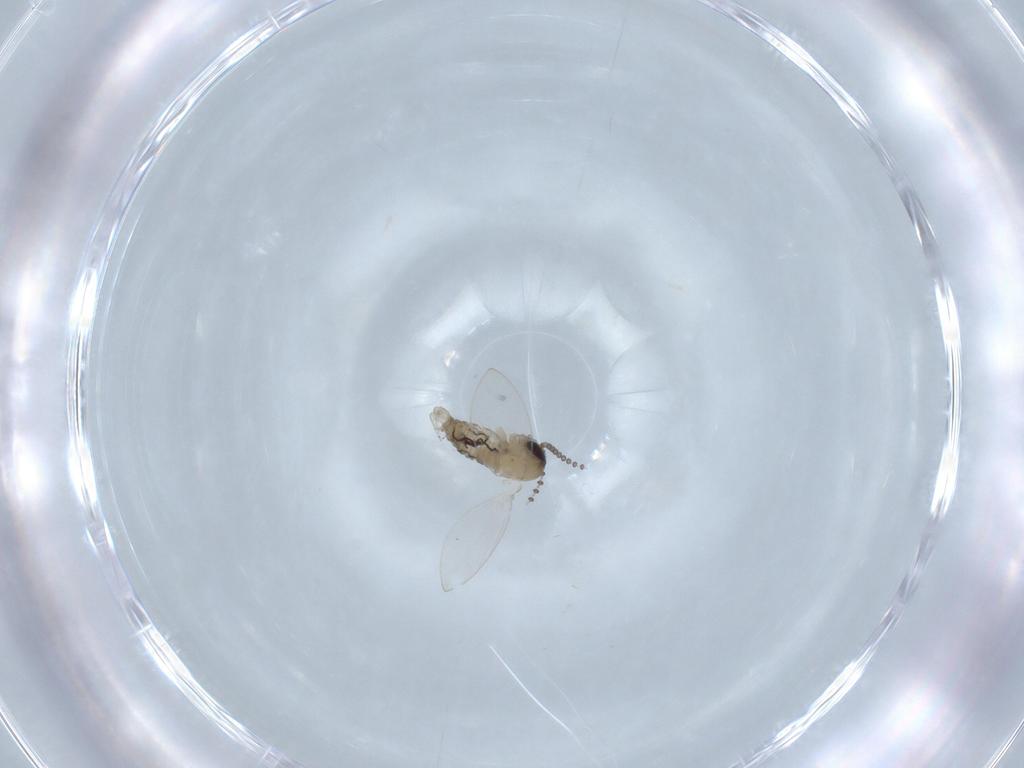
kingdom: Animalia
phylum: Arthropoda
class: Insecta
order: Diptera
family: Psychodidae
